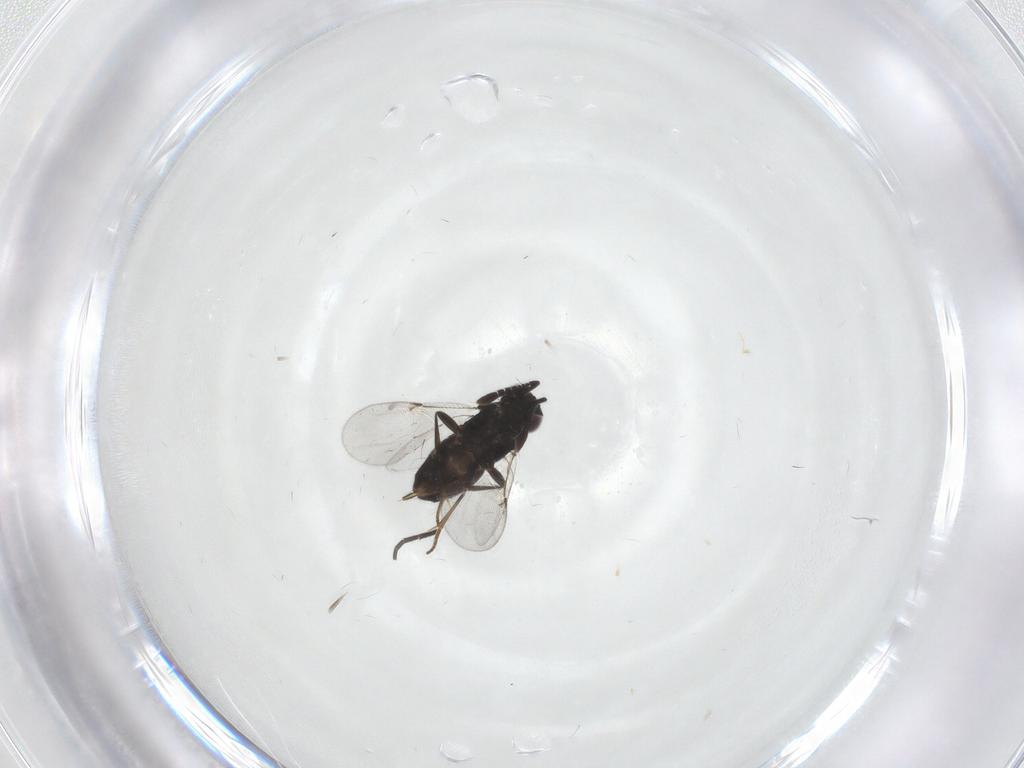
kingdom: Animalia
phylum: Arthropoda
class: Insecta
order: Hymenoptera
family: Encyrtidae
